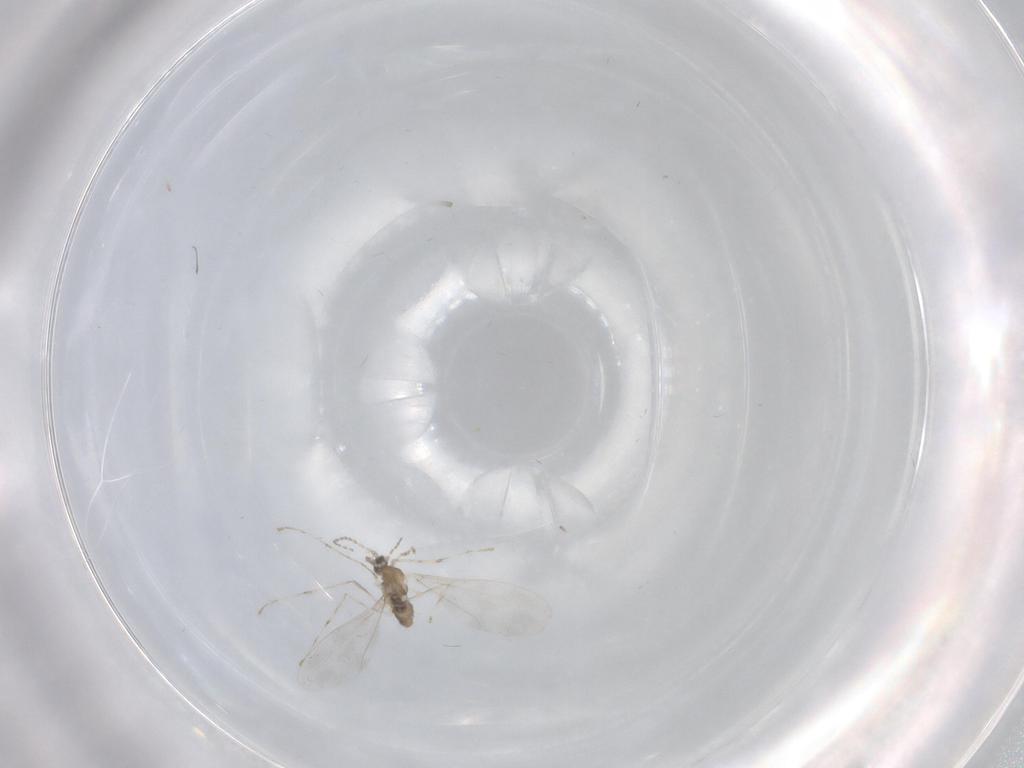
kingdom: Animalia
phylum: Arthropoda
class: Insecta
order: Diptera
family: Cecidomyiidae
